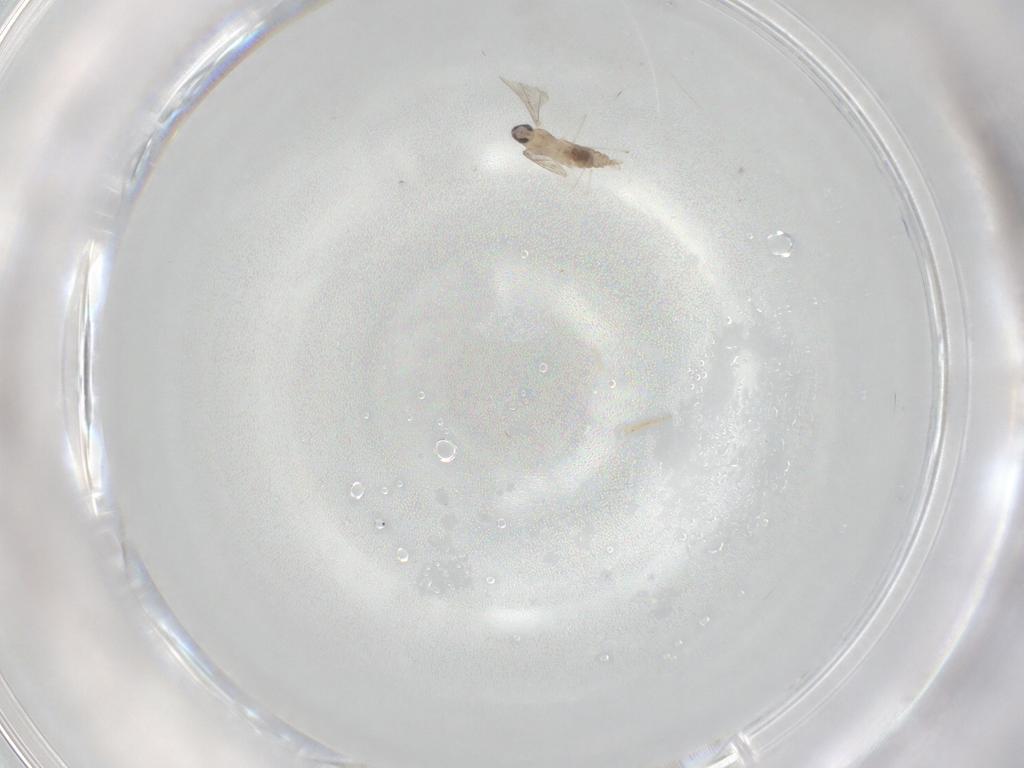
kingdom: Animalia
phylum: Arthropoda
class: Insecta
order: Diptera
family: Cecidomyiidae
